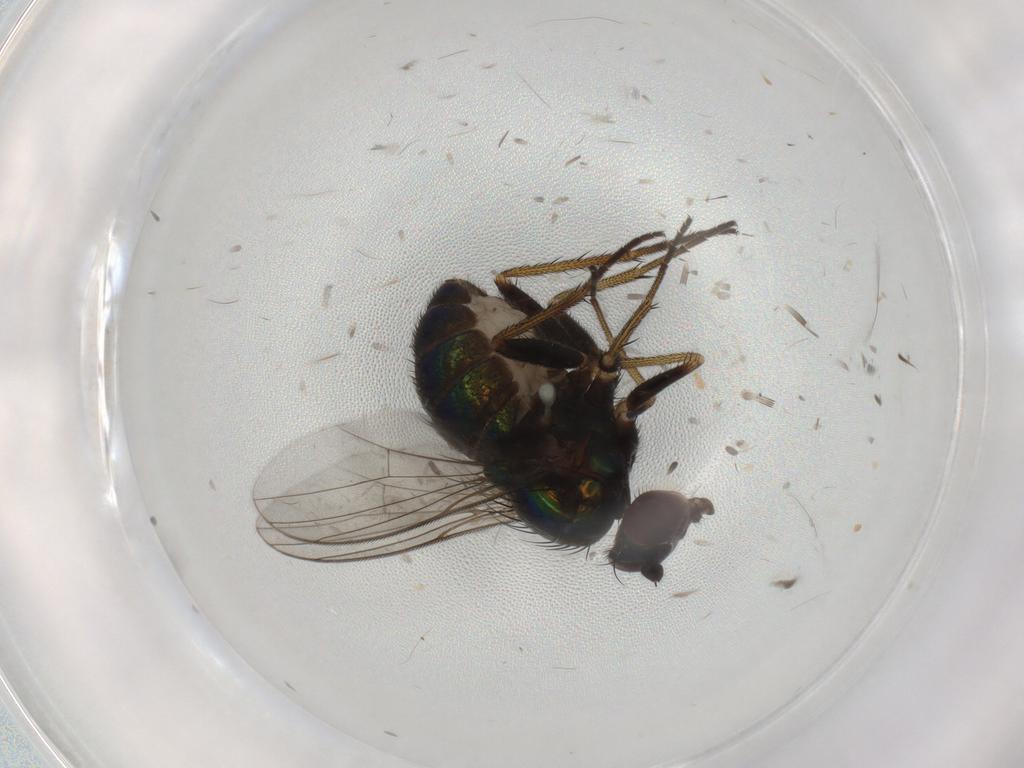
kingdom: Animalia
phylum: Arthropoda
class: Insecta
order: Diptera
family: Culicidae
